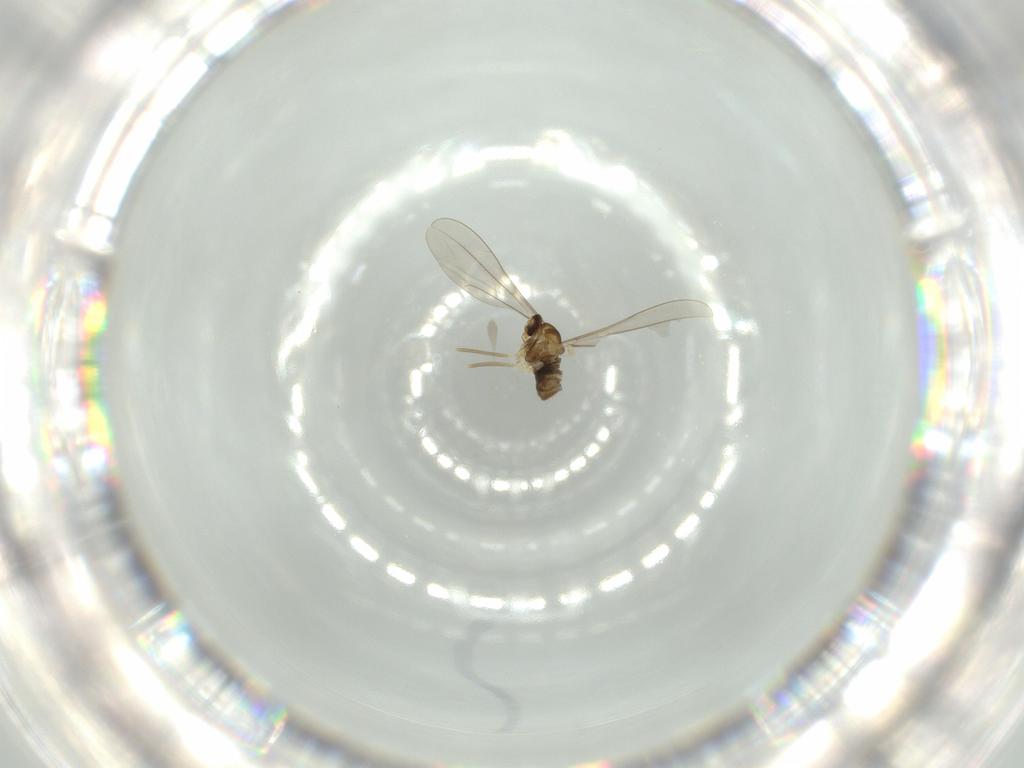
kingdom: Animalia
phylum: Arthropoda
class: Insecta
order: Diptera
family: Cecidomyiidae
